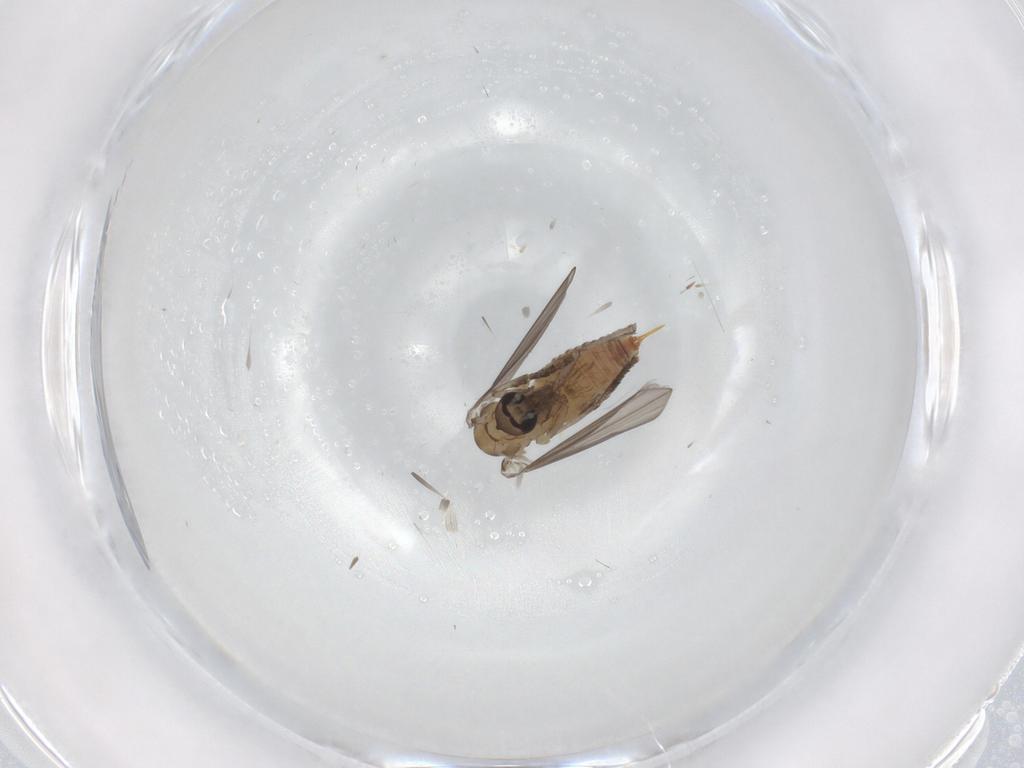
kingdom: Animalia
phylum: Arthropoda
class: Insecta
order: Diptera
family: Psychodidae
